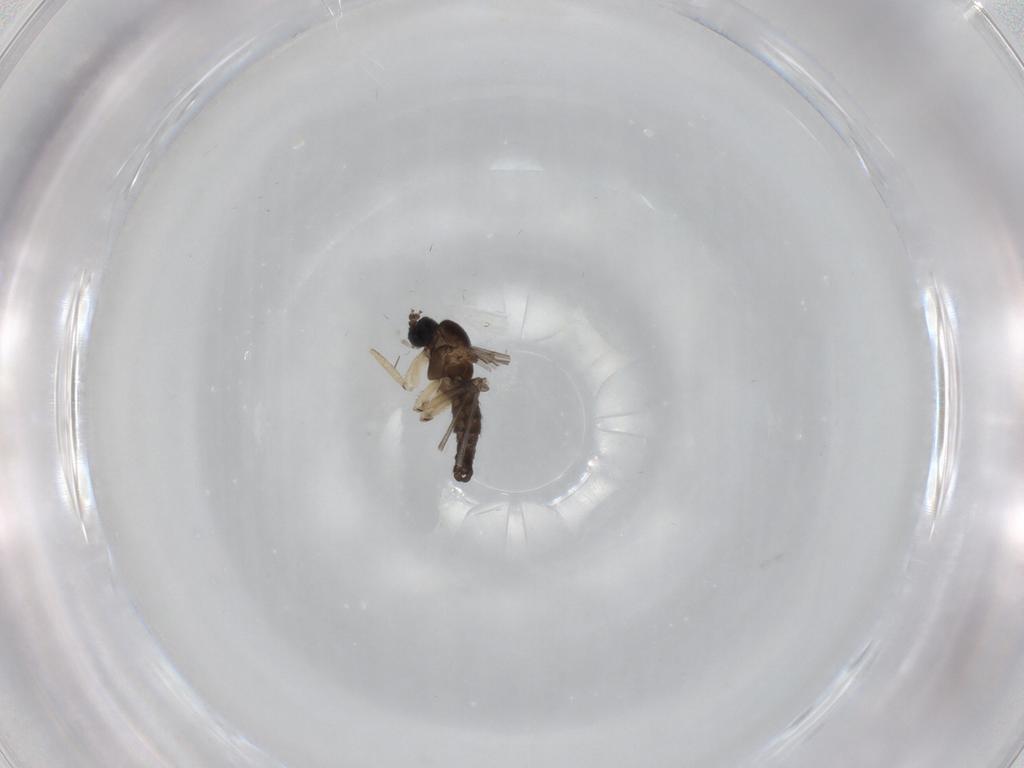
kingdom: Animalia
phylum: Arthropoda
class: Insecta
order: Diptera
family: Sciaridae
